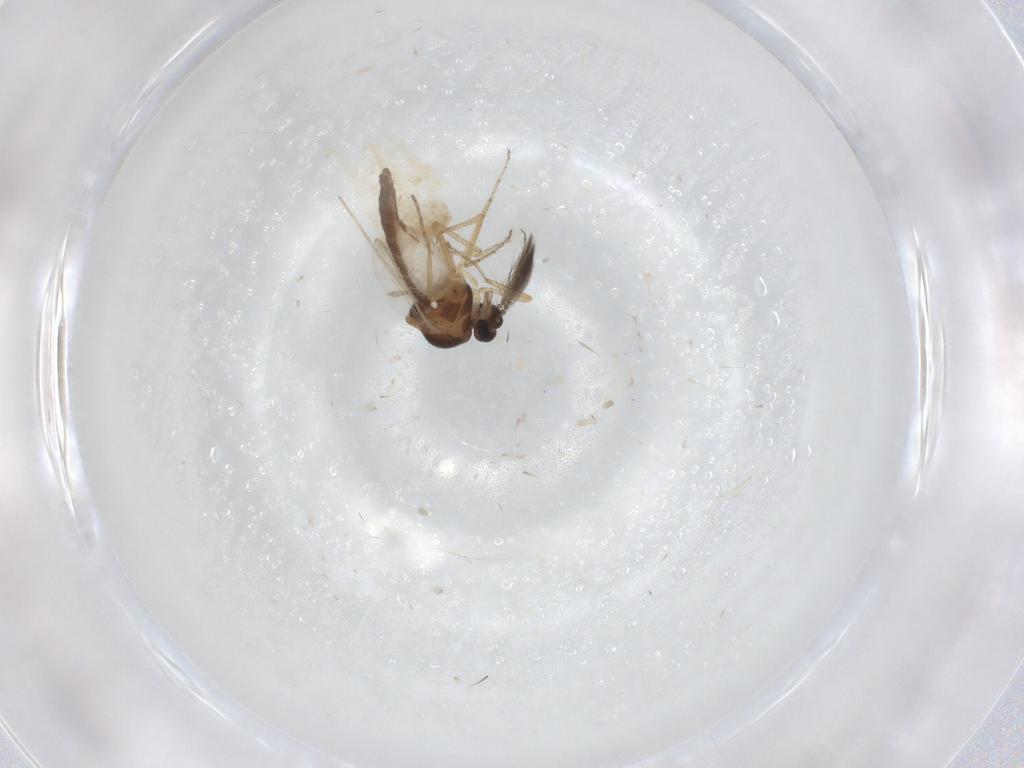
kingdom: Animalia
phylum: Arthropoda
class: Insecta
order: Diptera
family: Ceratopogonidae
